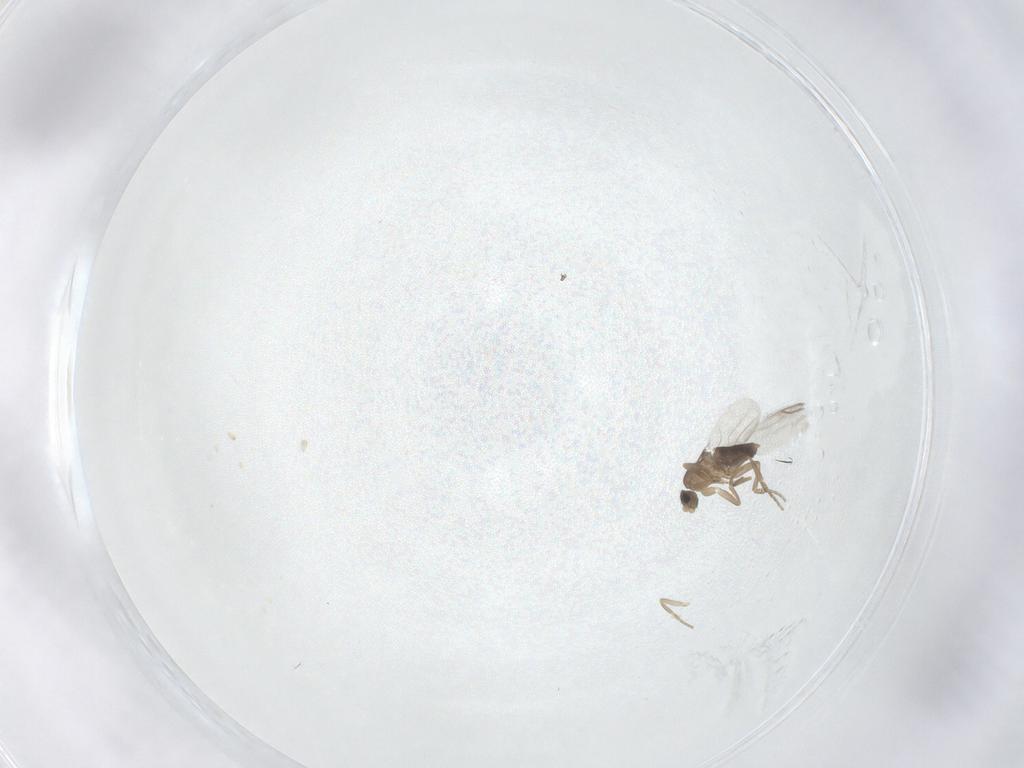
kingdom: Animalia
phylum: Arthropoda
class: Insecta
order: Diptera
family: Phoridae
